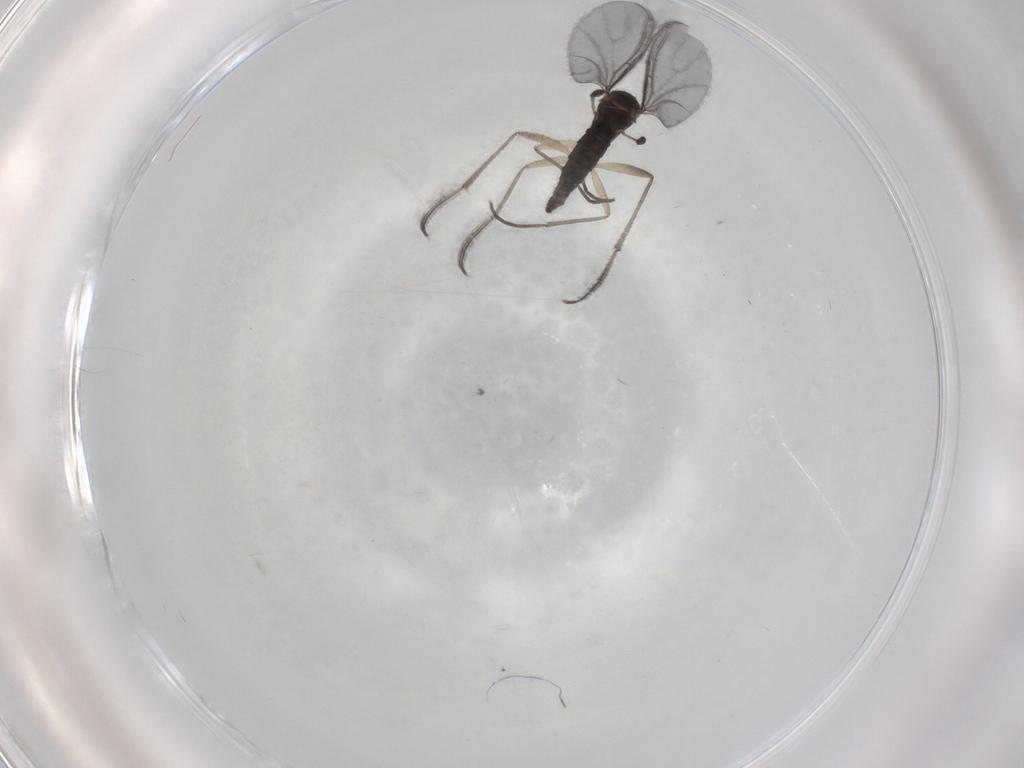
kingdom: Animalia
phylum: Arthropoda
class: Insecta
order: Diptera
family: Sciaridae
